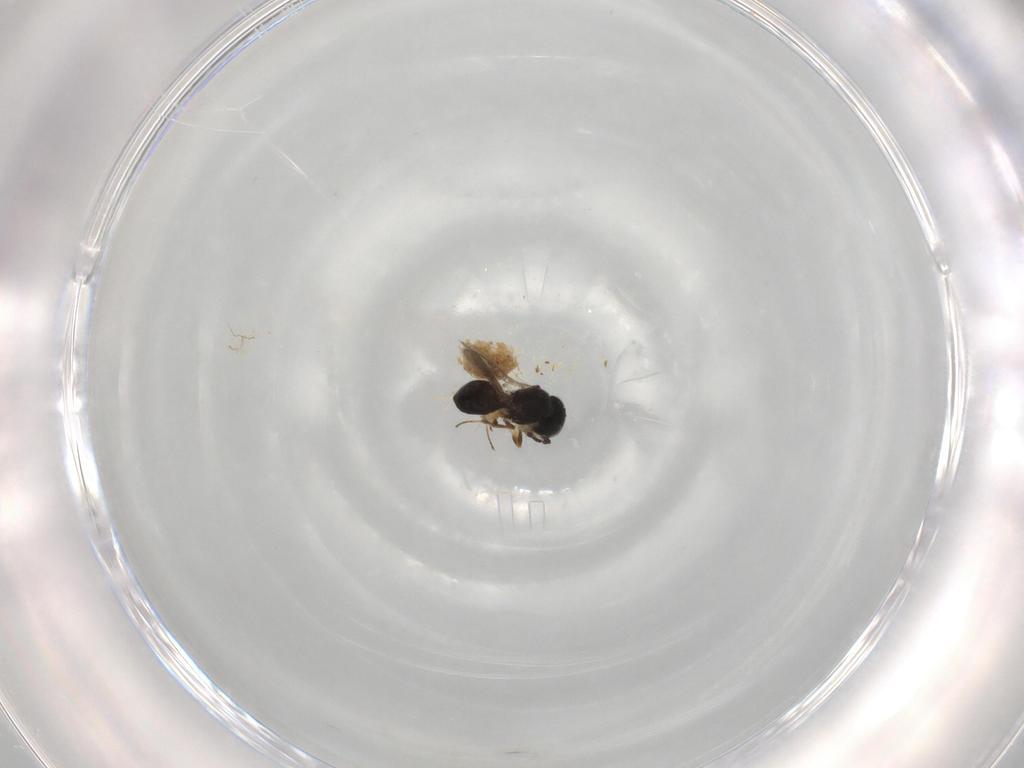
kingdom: Animalia
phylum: Arthropoda
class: Insecta
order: Hymenoptera
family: Scelionidae
